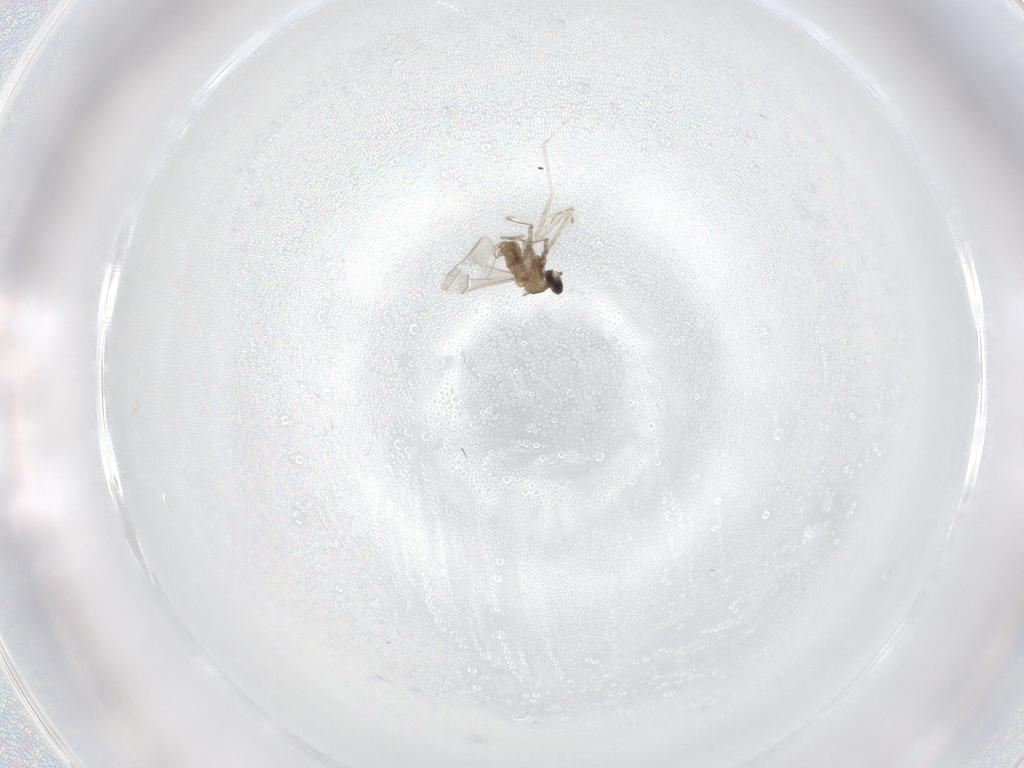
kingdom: Animalia
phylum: Arthropoda
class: Insecta
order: Diptera
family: Cecidomyiidae
